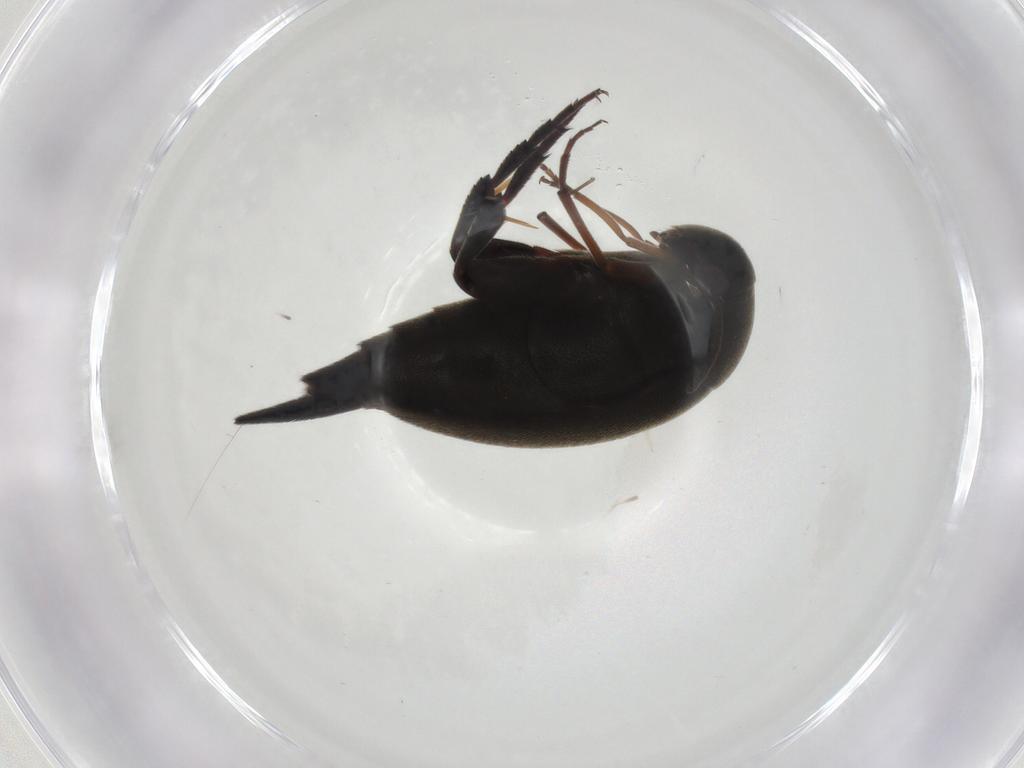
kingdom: Animalia
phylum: Arthropoda
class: Insecta
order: Coleoptera
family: Mordellidae
